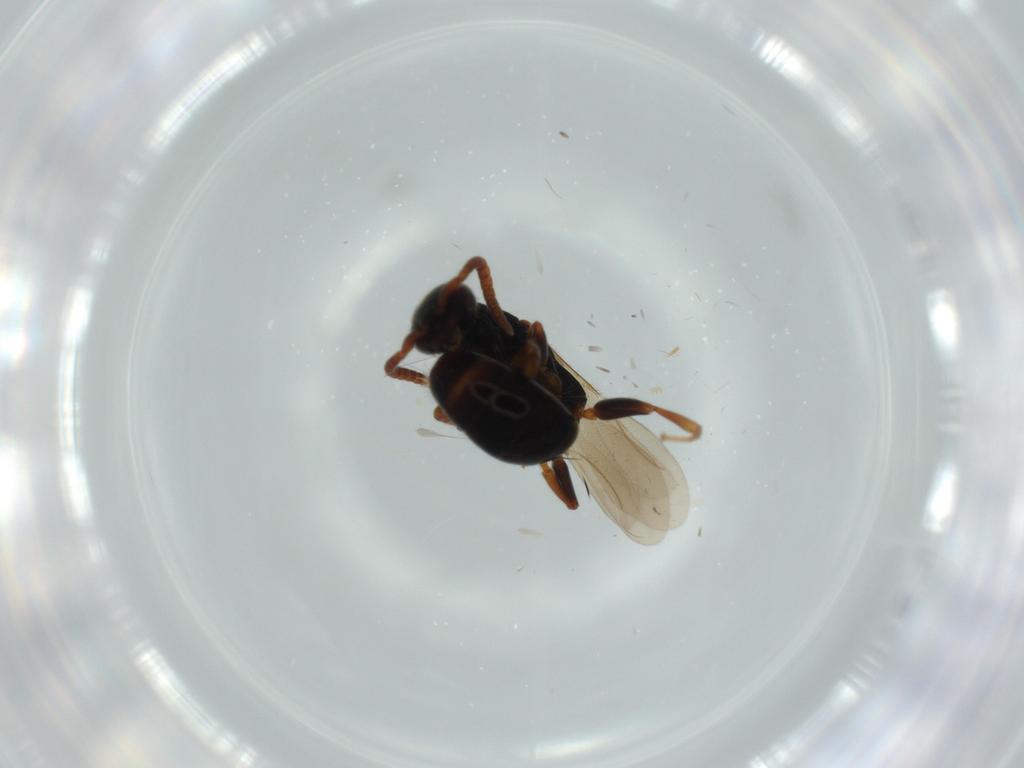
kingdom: Animalia
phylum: Arthropoda
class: Insecta
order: Hymenoptera
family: Bethylidae
